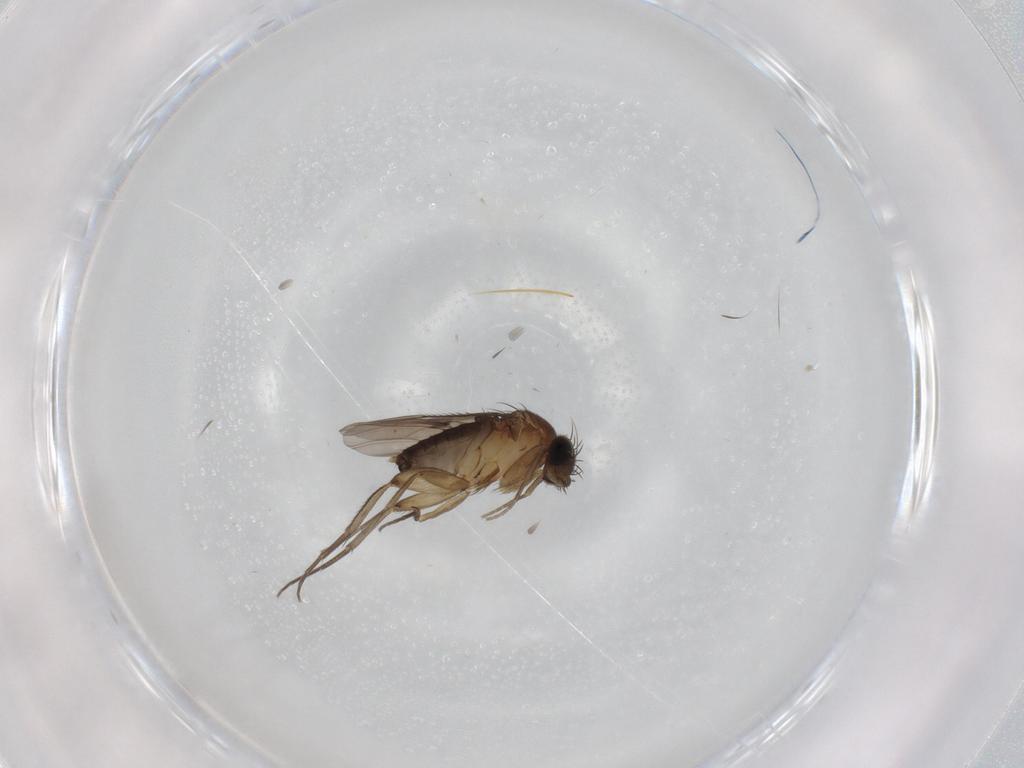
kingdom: Animalia
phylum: Arthropoda
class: Insecta
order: Diptera
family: Phoridae
